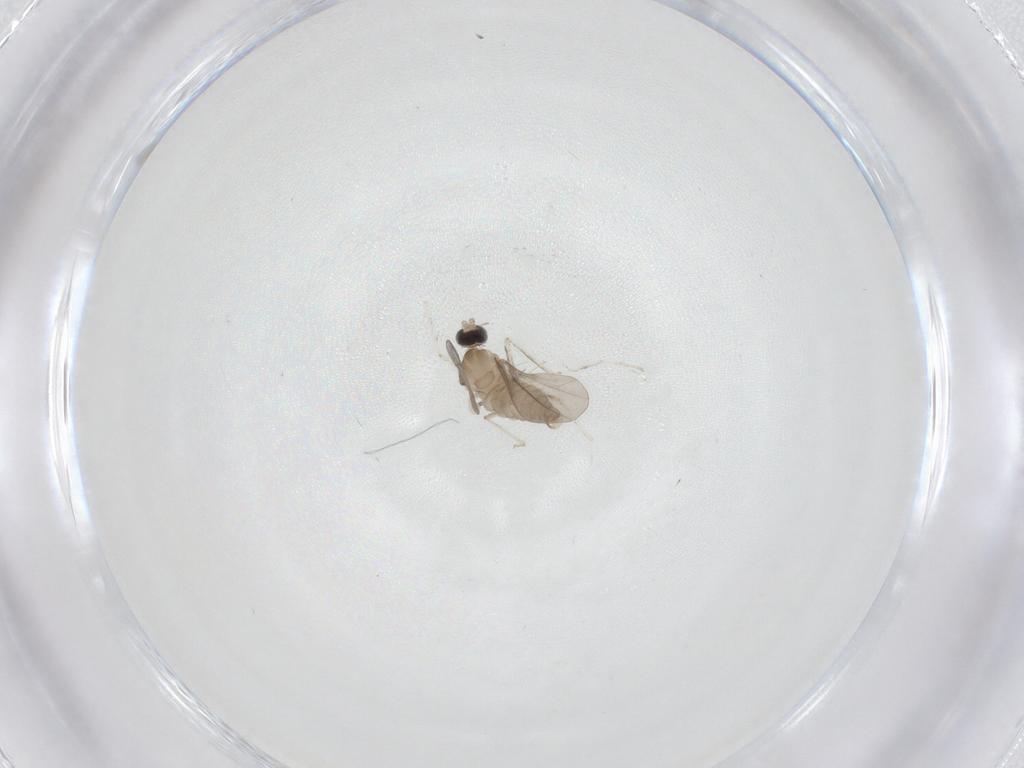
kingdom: Animalia
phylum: Arthropoda
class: Insecta
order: Diptera
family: Cecidomyiidae
